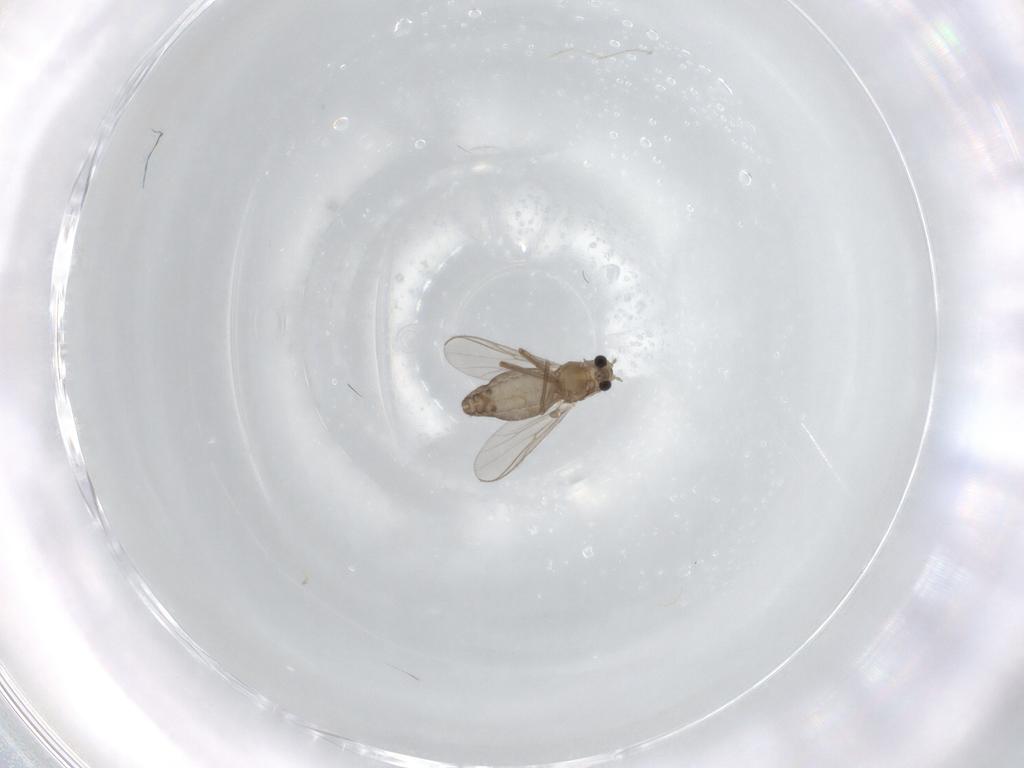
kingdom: Animalia
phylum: Arthropoda
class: Insecta
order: Diptera
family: Chironomidae
